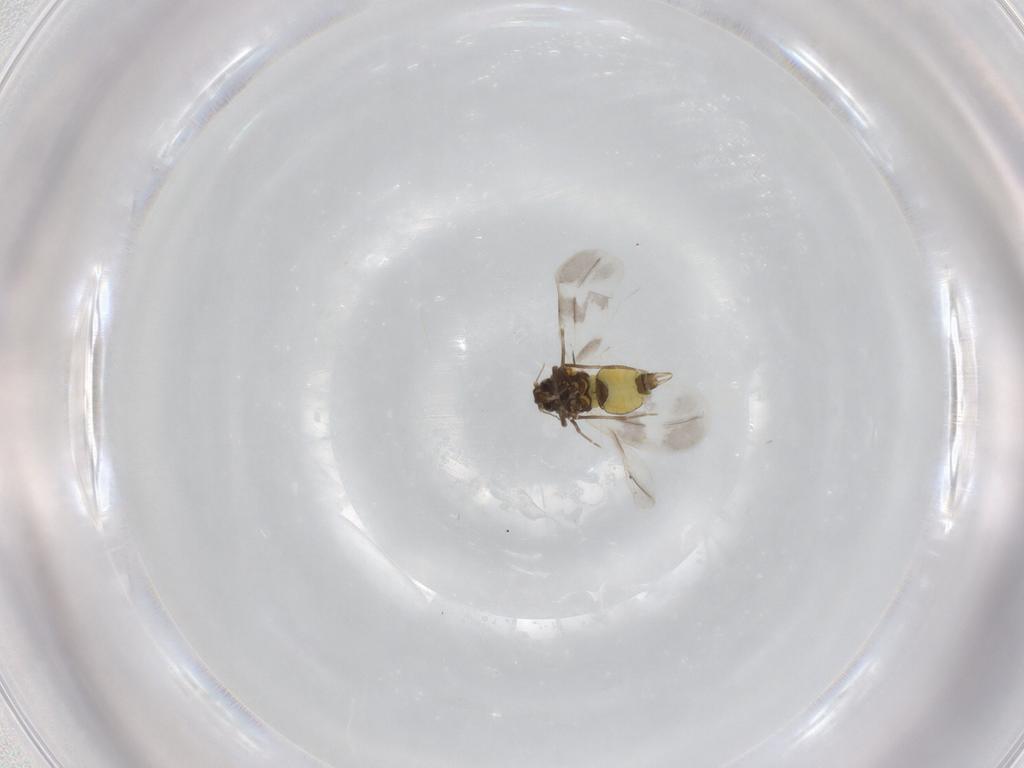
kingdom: Animalia
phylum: Arthropoda
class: Insecta
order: Hemiptera
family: Aleyrodidae
